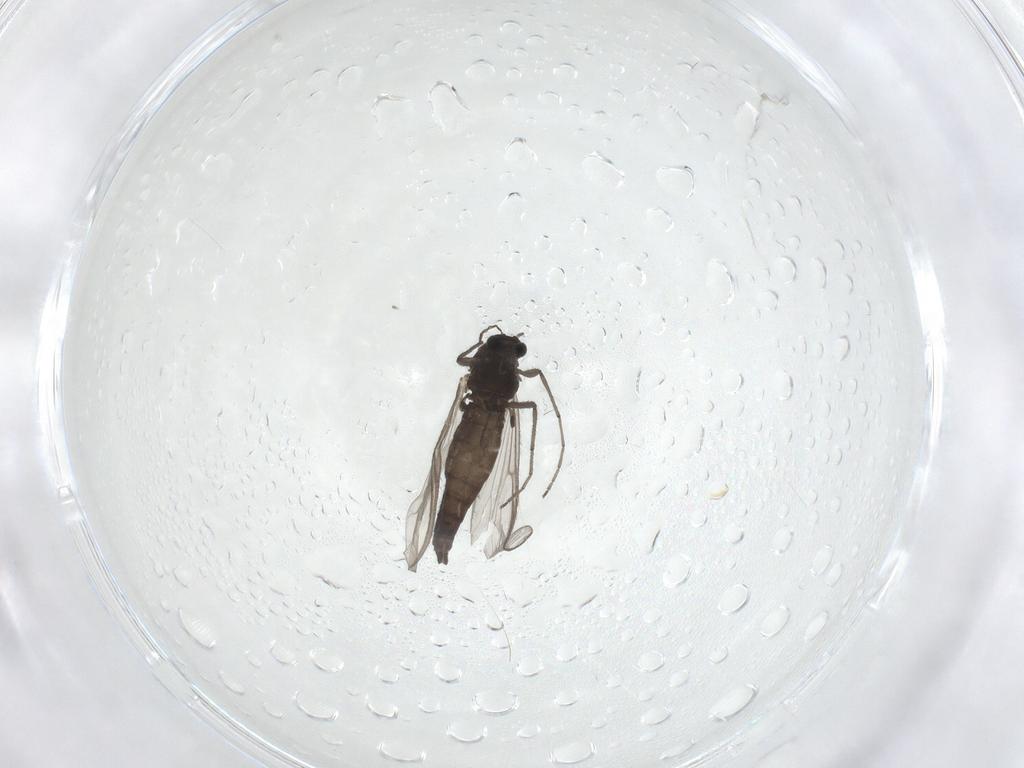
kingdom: Animalia
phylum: Arthropoda
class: Insecta
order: Diptera
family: Chironomidae
